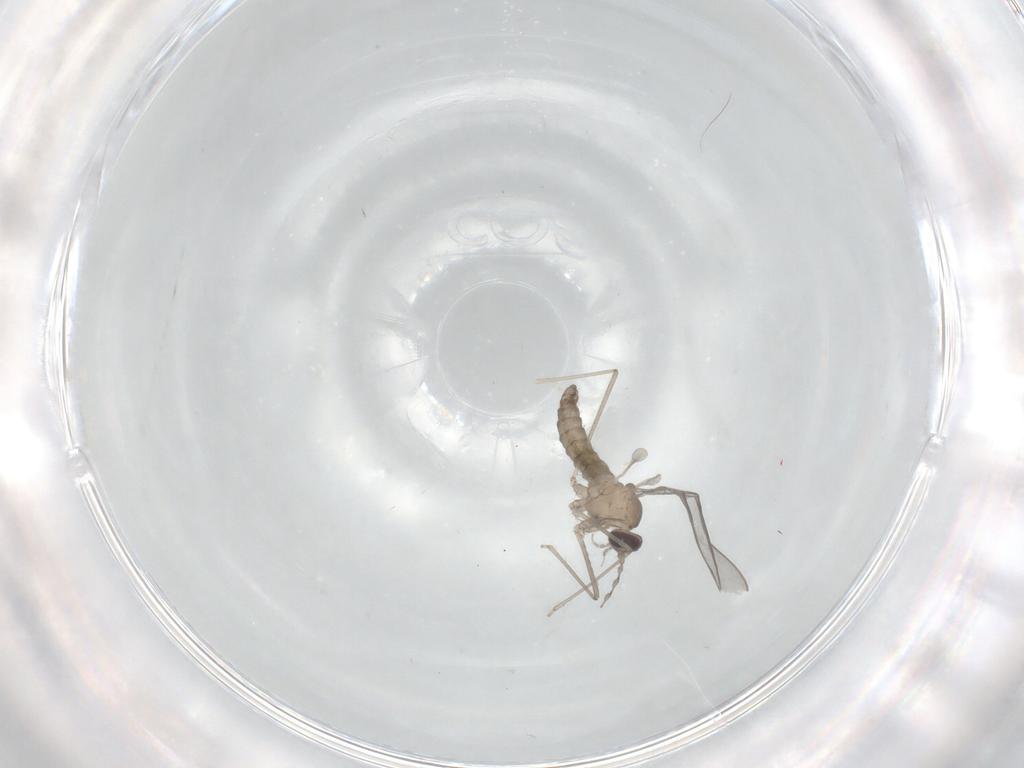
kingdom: Animalia
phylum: Arthropoda
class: Insecta
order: Diptera
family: Cecidomyiidae
